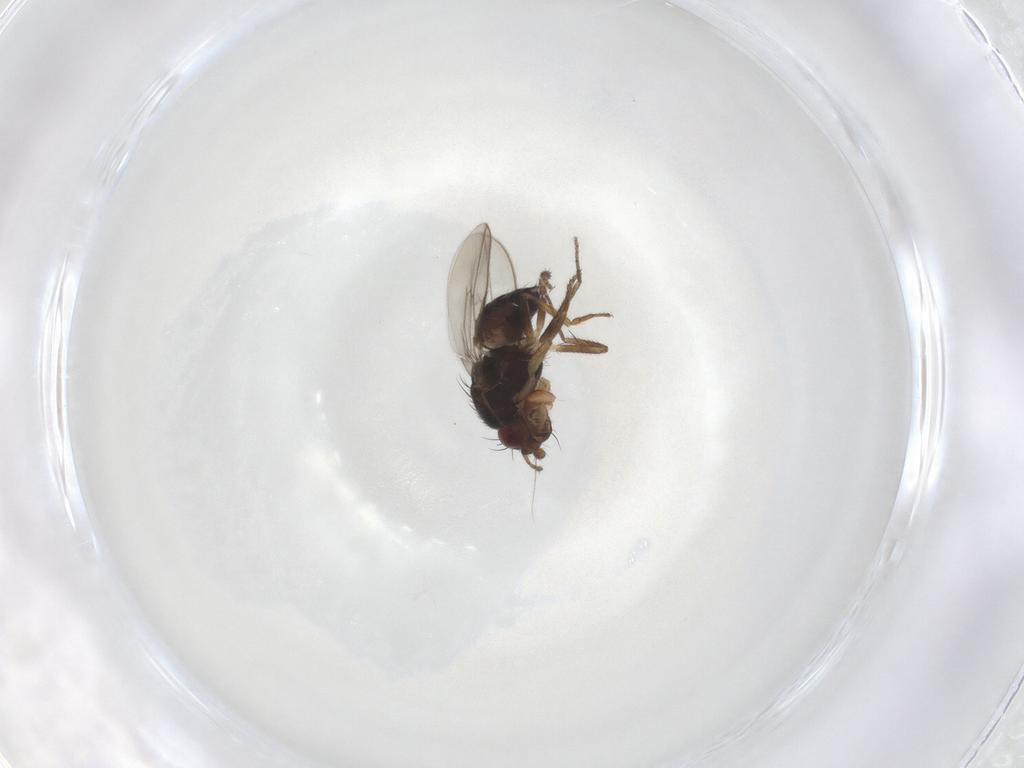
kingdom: Animalia
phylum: Arthropoda
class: Insecta
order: Diptera
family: Sphaeroceridae
